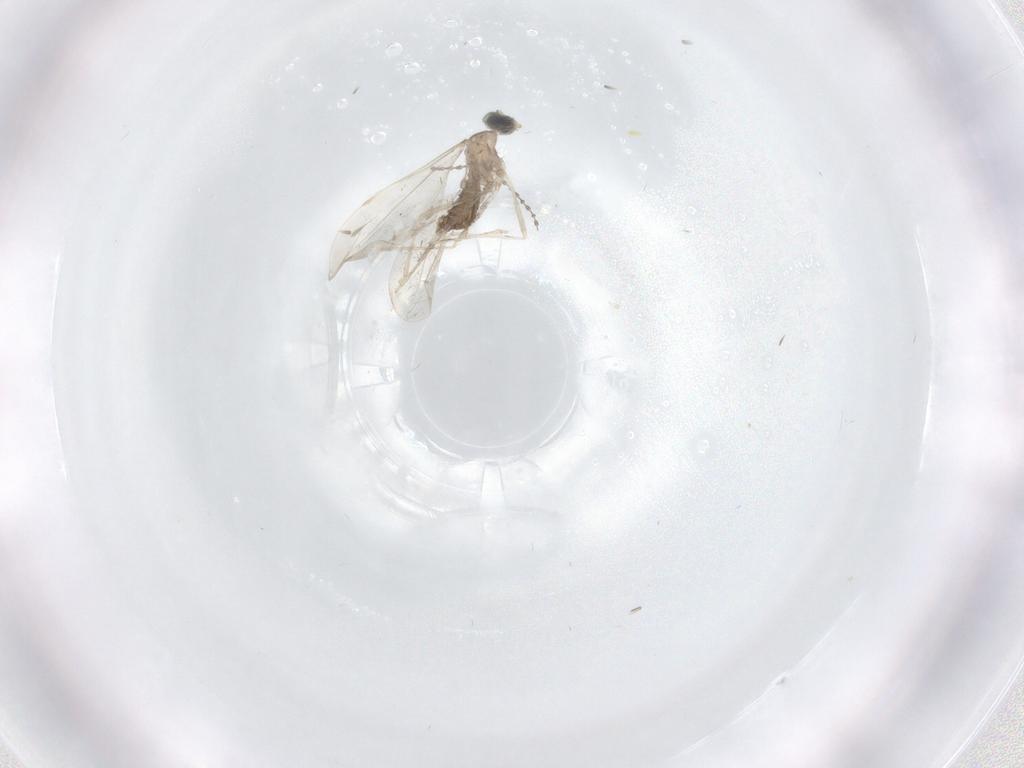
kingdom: Animalia
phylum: Arthropoda
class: Insecta
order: Diptera
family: Cecidomyiidae
